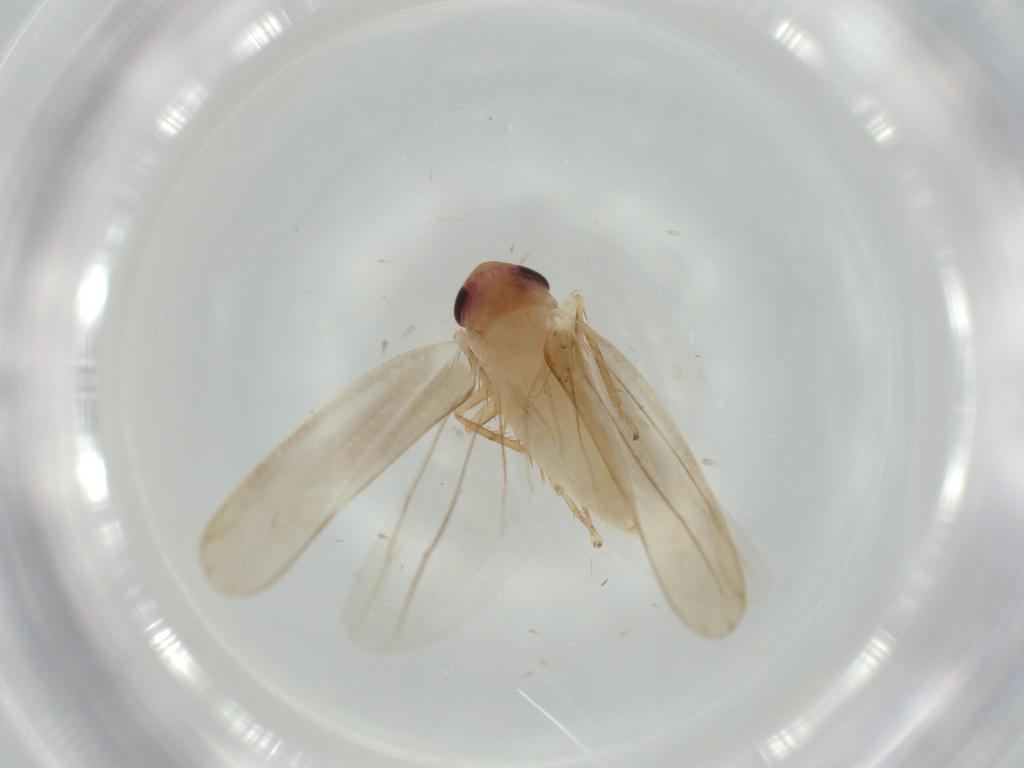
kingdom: Animalia
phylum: Arthropoda
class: Insecta
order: Hemiptera
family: Cicadellidae
